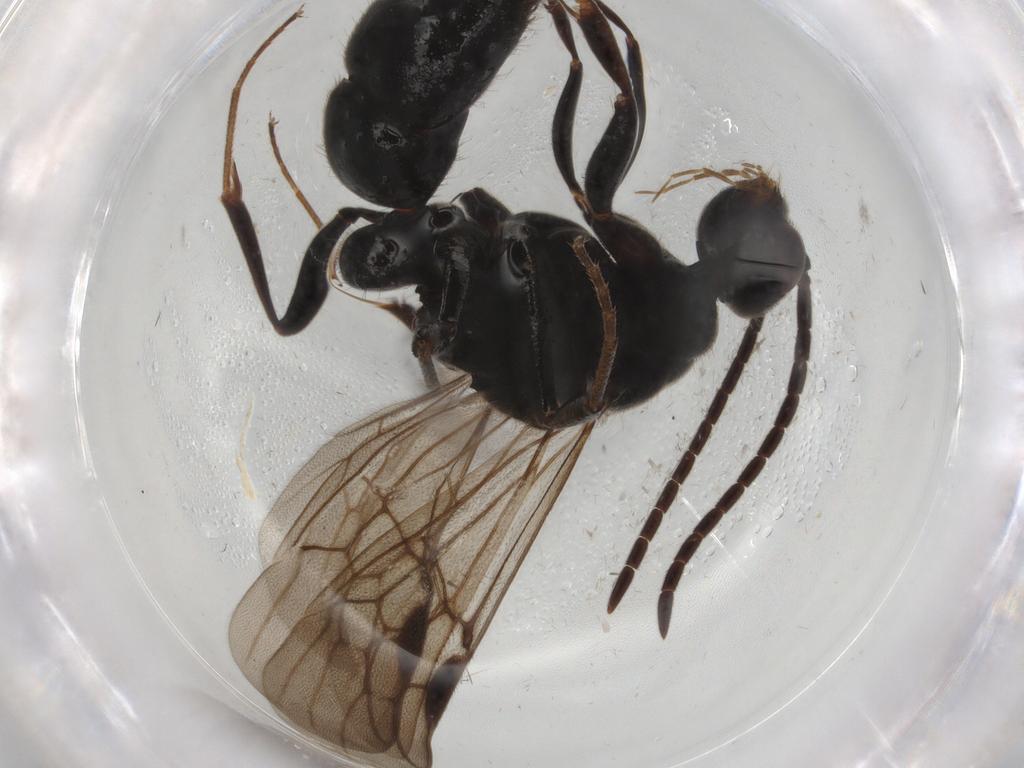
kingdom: Animalia
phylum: Arthropoda
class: Insecta
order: Hymenoptera
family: Formicidae
